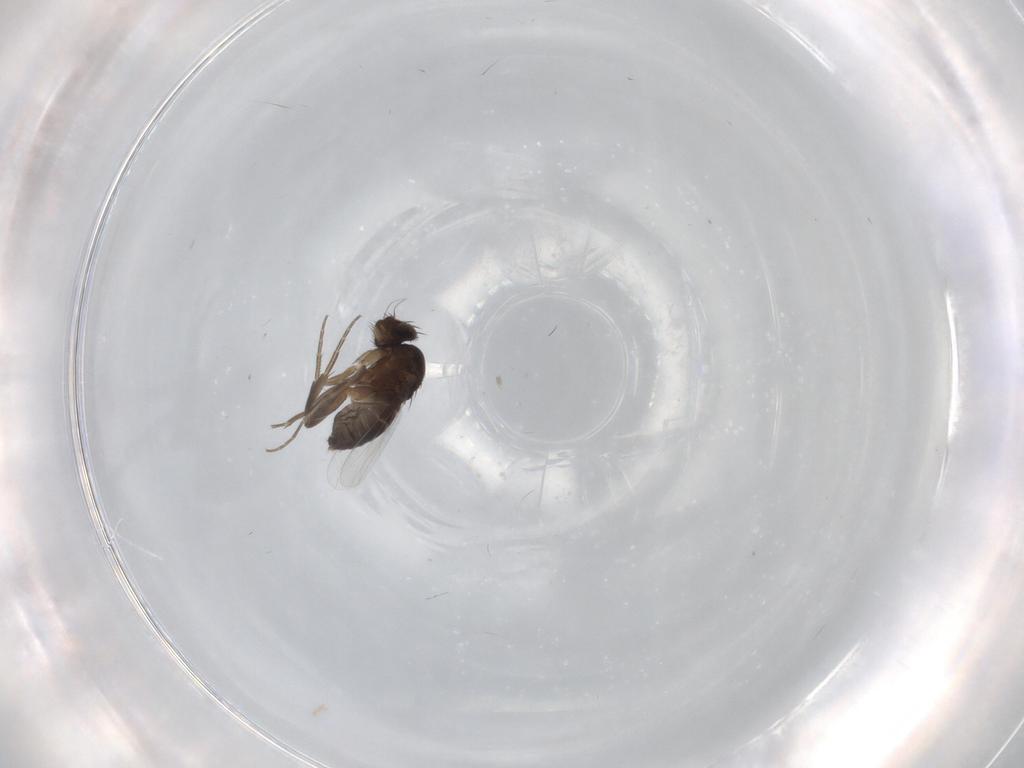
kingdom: Animalia
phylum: Arthropoda
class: Insecta
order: Diptera
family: Phoridae
